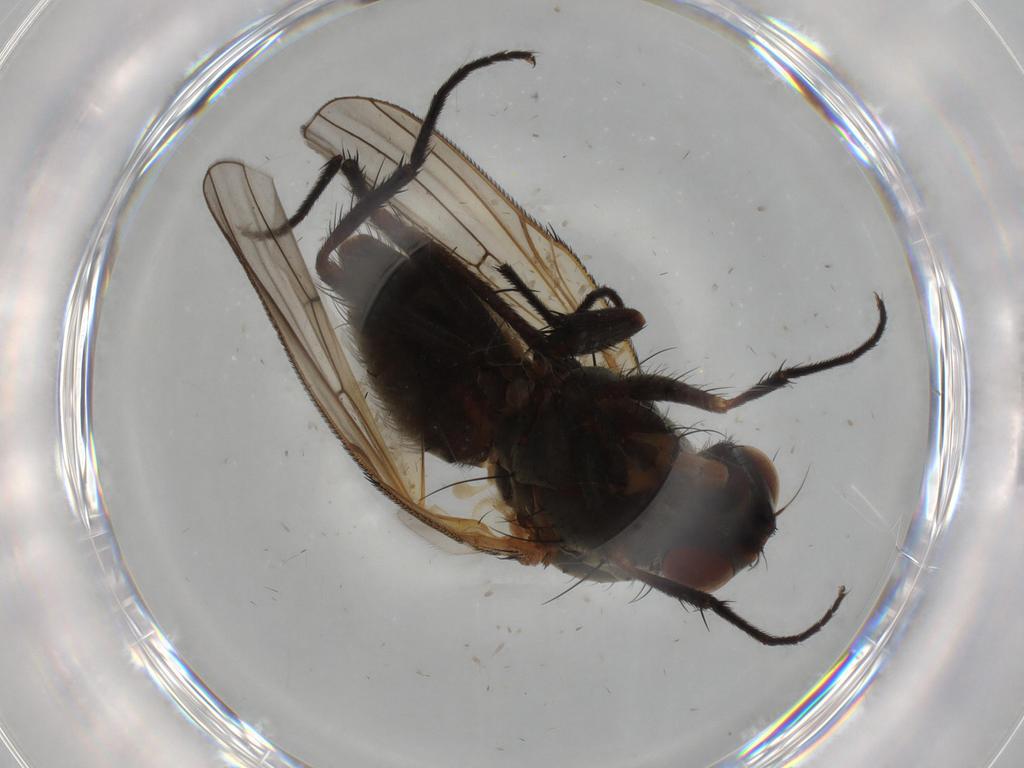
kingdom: Animalia
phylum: Arthropoda
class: Insecta
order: Diptera
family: Anthomyiidae
